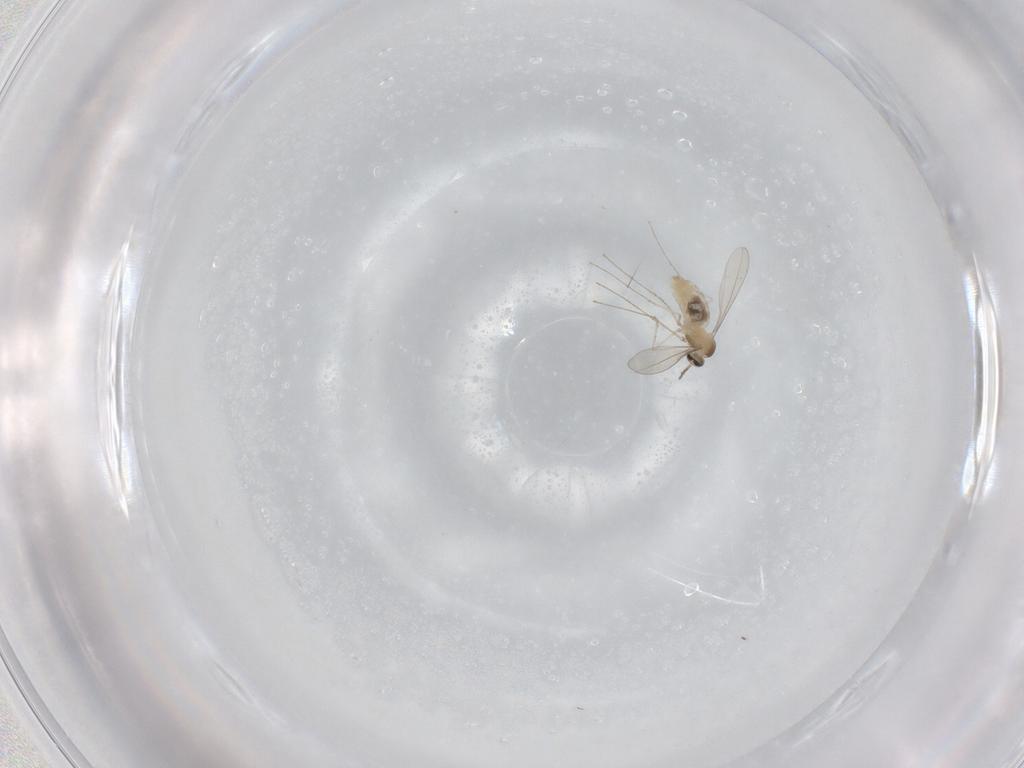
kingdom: Animalia
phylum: Arthropoda
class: Insecta
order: Diptera
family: Cecidomyiidae
